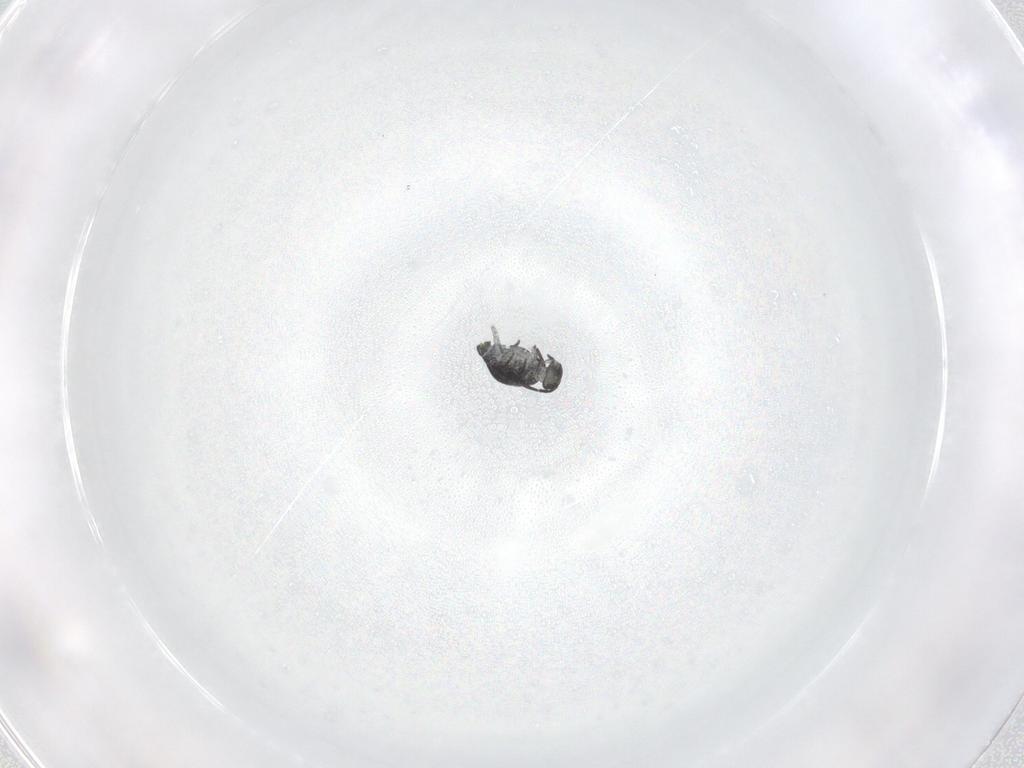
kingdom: Animalia
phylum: Arthropoda
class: Collembola
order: Symphypleona
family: Katiannidae
